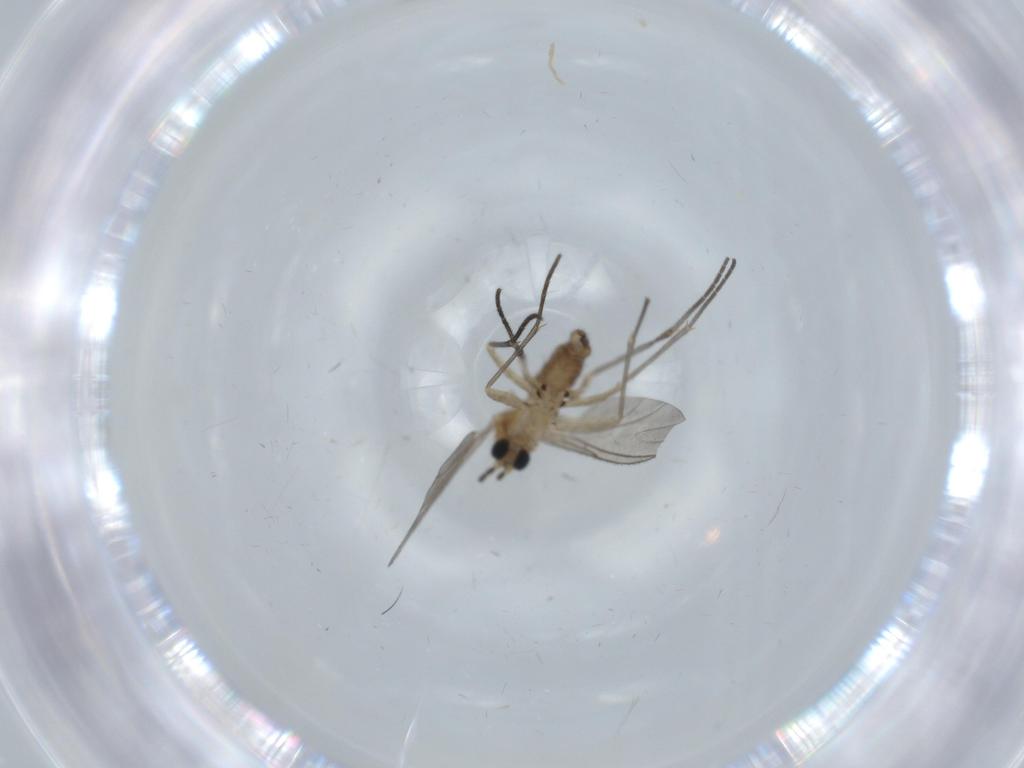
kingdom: Animalia
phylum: Arthropoda
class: Insecta
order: Diptera
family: Sciaridae
